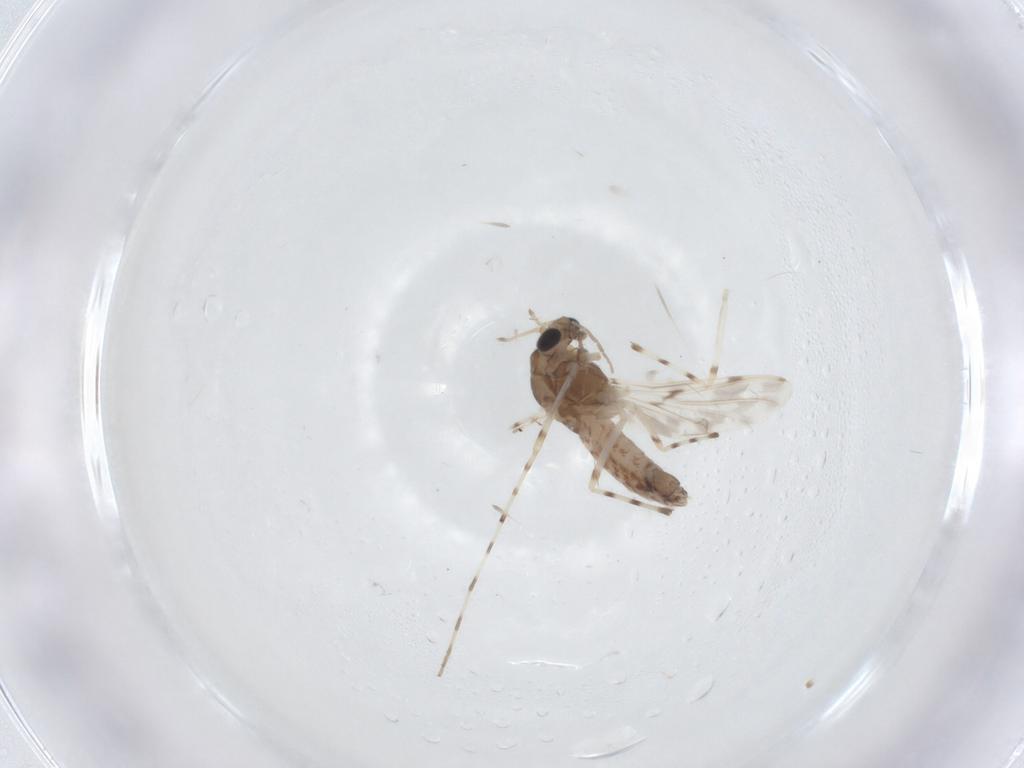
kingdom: Animalia
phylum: Arthropoda
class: Insecta
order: Diptera
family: Chironomidae
